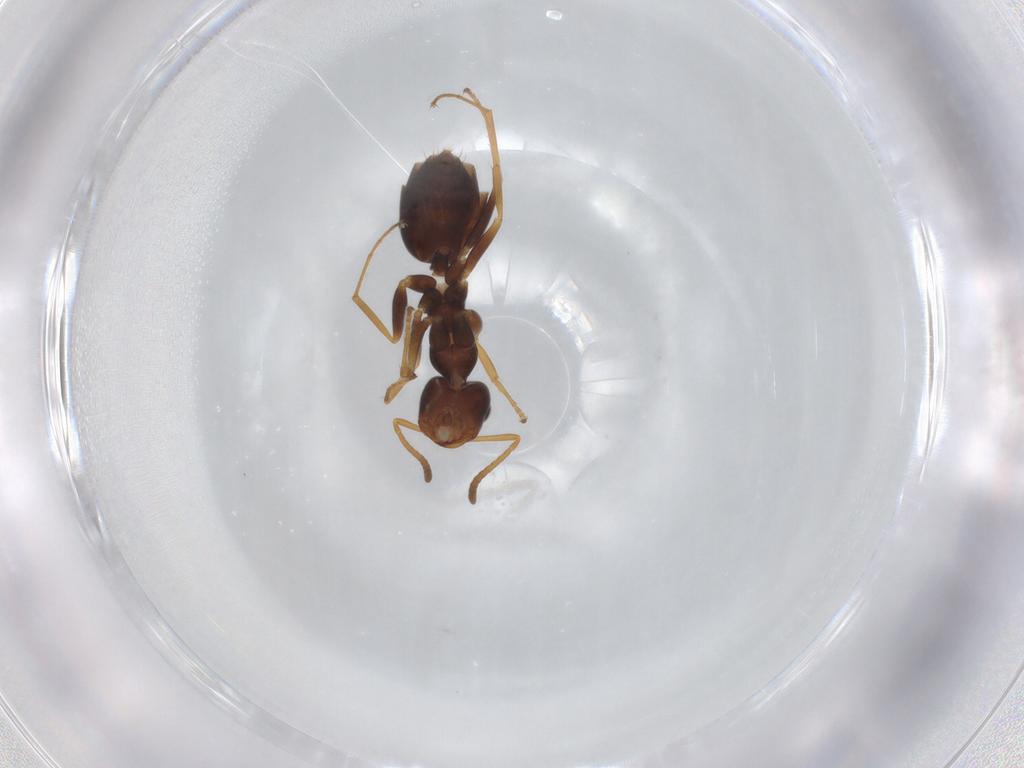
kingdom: Animalia
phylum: Arthropoda
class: Insecta
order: Hymenoptera
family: Formicidae
